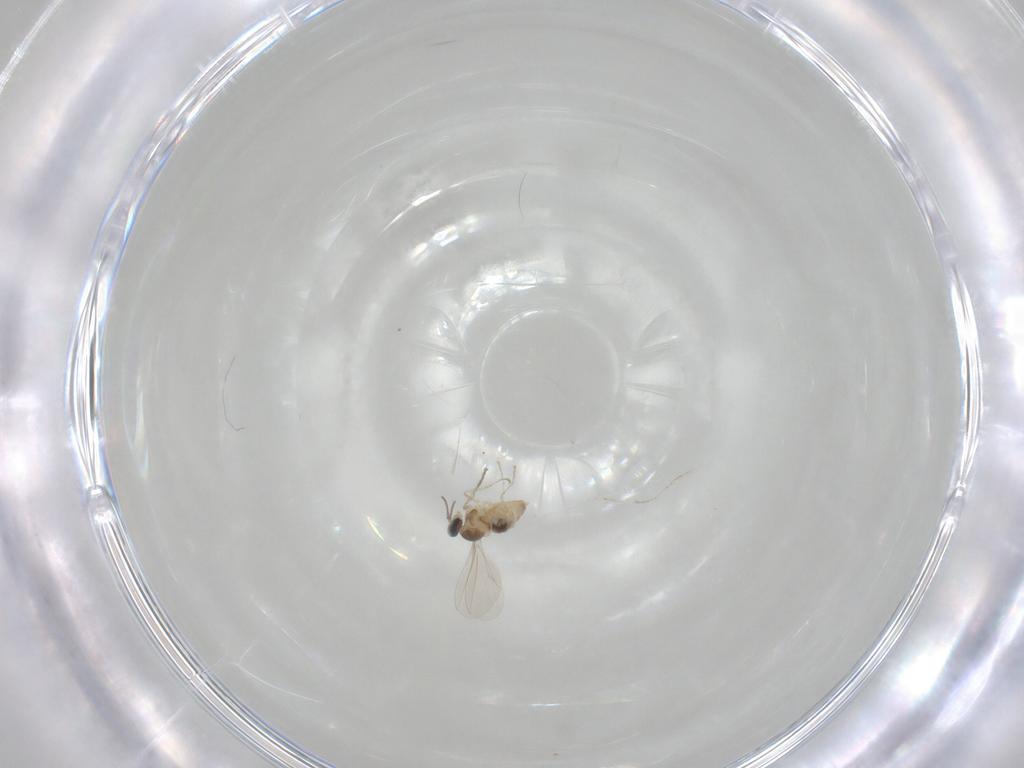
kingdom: Animalia
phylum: Arthropoda
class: Insecta
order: Diptera
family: Cecidomyiidae
